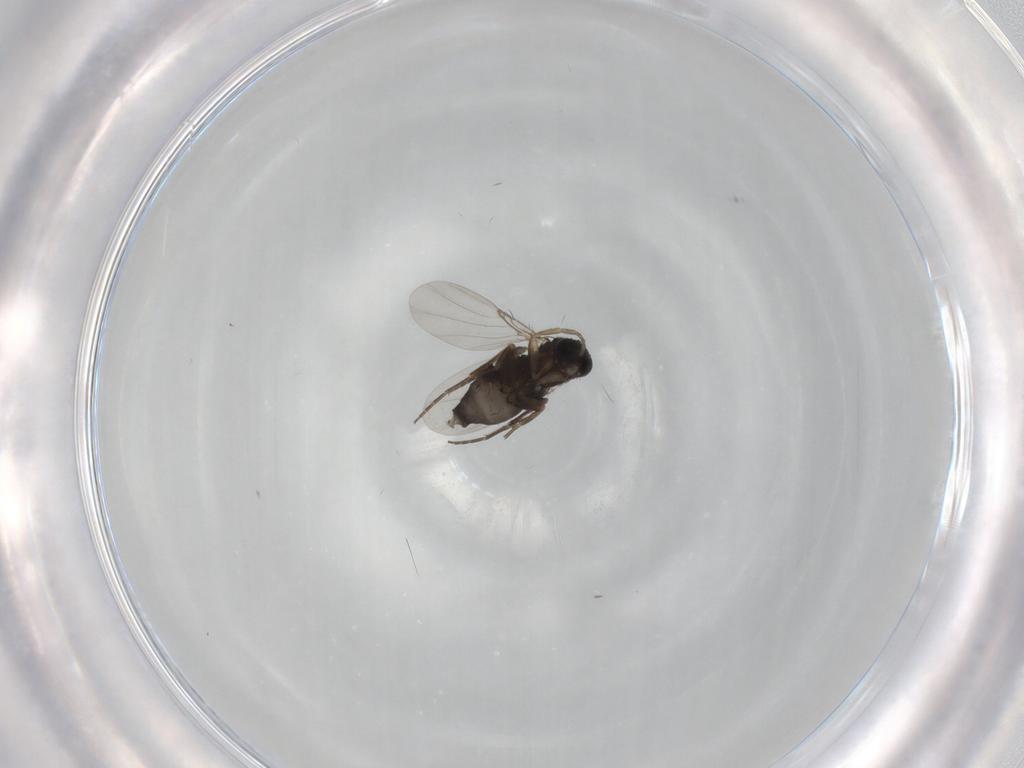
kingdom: Animalia
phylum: Arthropoda
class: Insecta
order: Diptera
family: Phoridae
